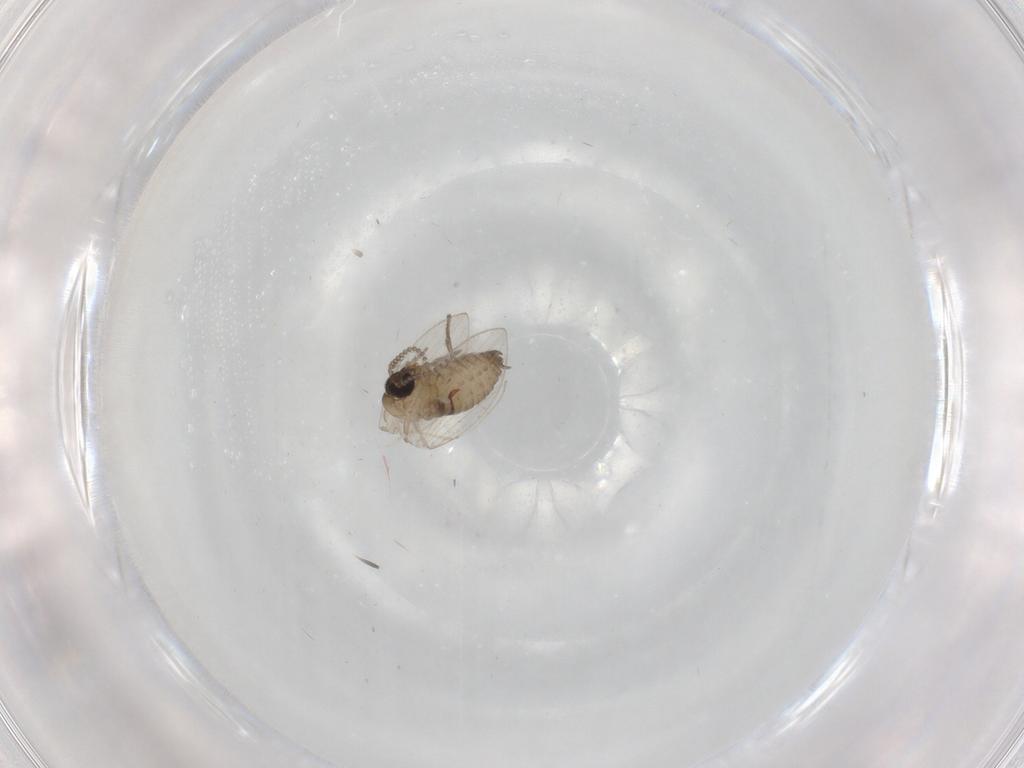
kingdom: Animalia
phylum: Arthropoda
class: Insecta
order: Diptera
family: Psychodidae
